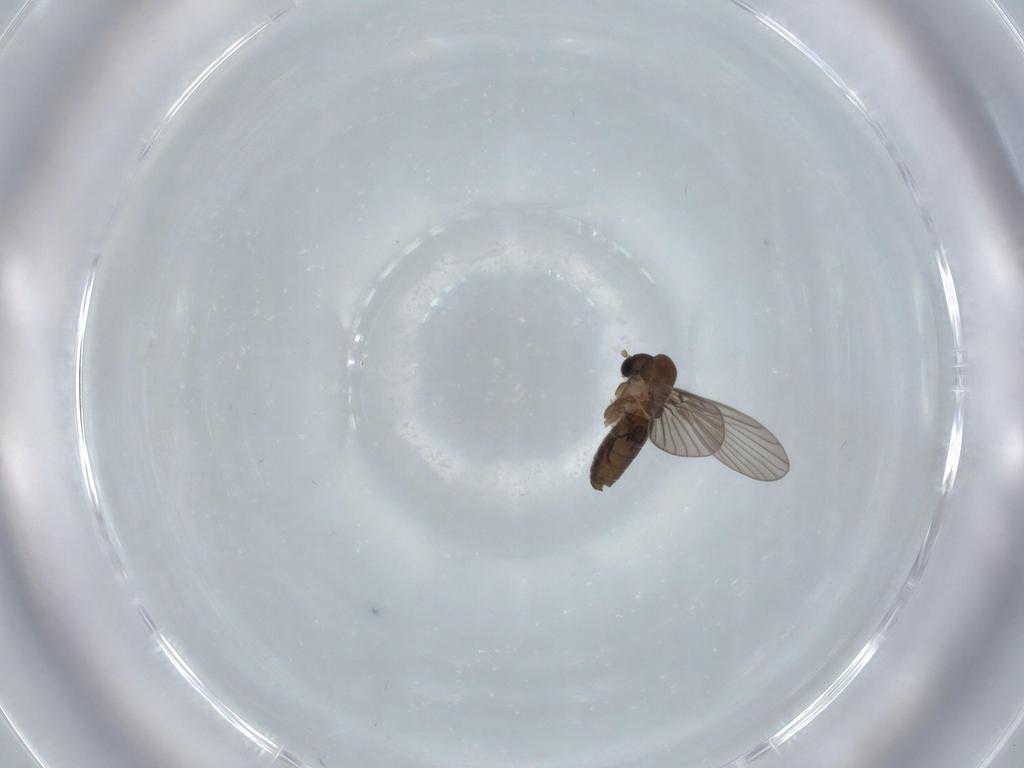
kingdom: Animalia
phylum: Arthropoda
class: Insecta
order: Diptera
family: Psychodidae
